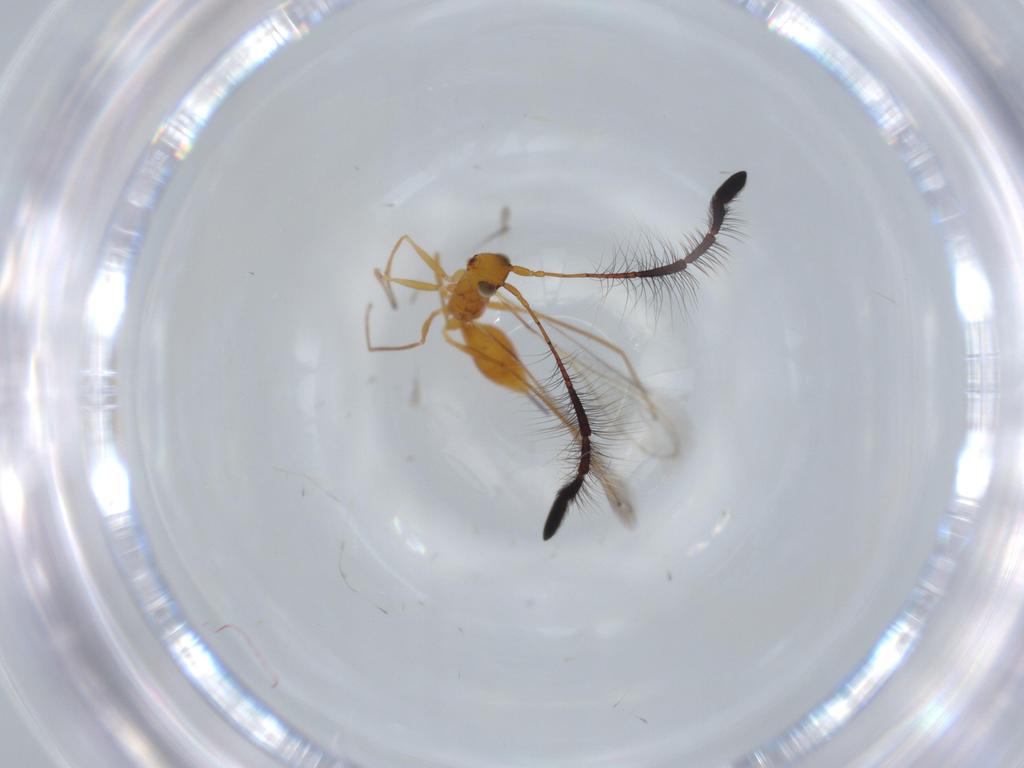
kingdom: Animalia
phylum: Arthropoda
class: Insecta
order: Hymenoptera
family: Mymaridae
